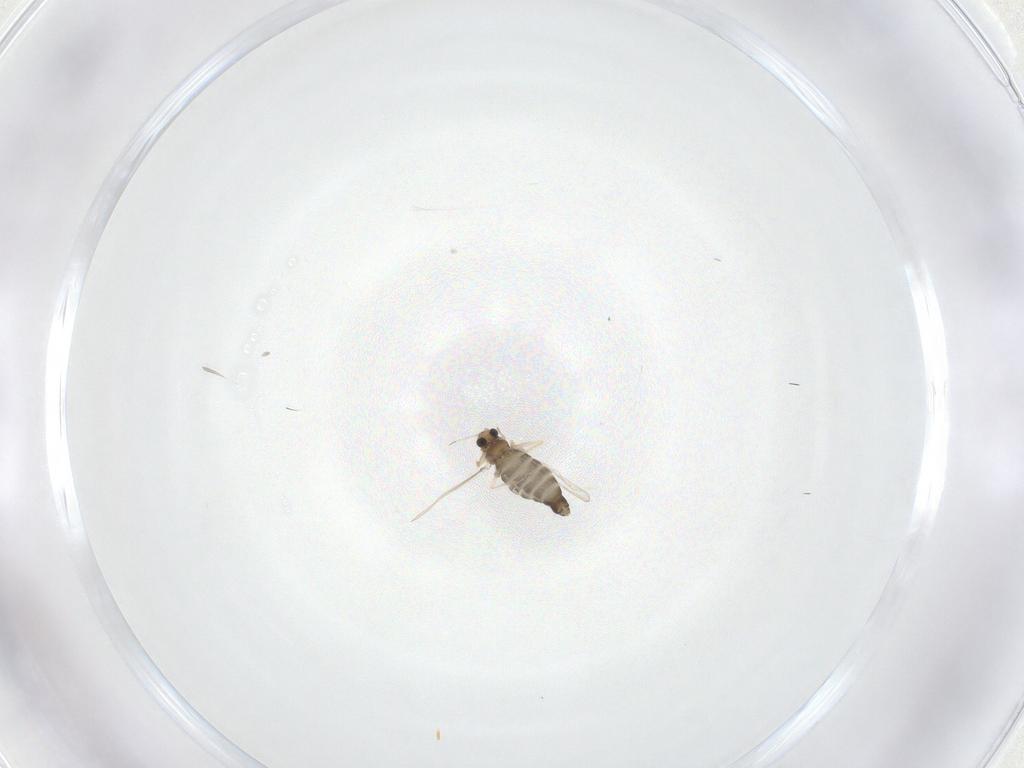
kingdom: Animalia
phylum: Arthropoda
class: Insecta
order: Diptera
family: Chironomidae
